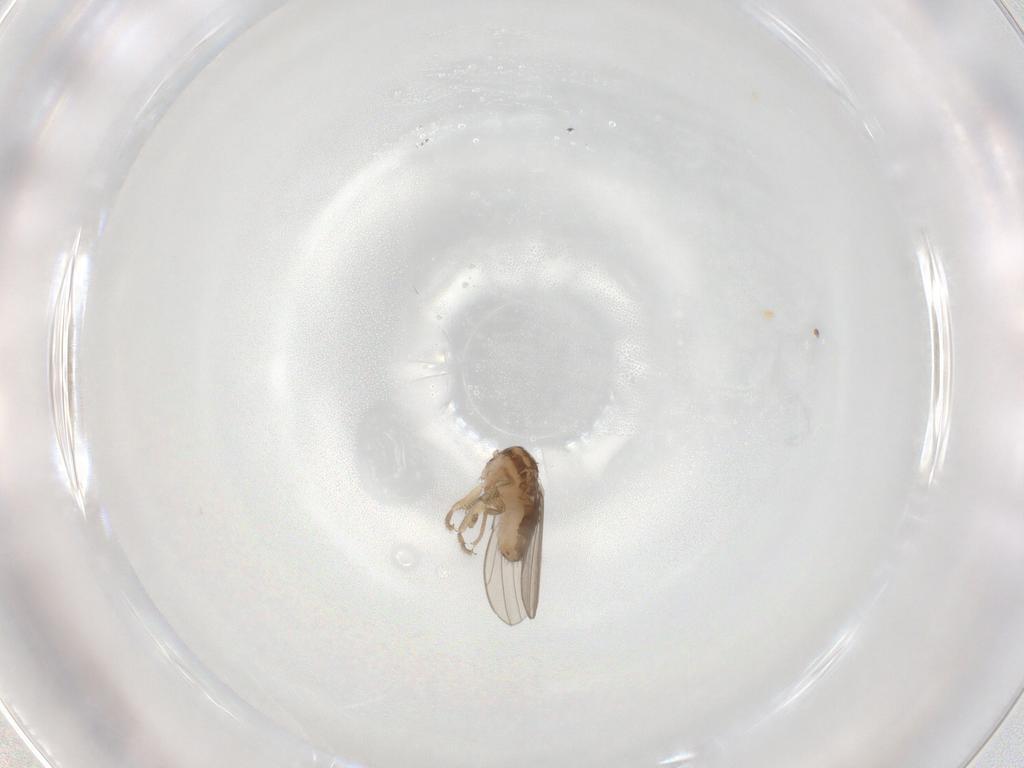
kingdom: Animalia
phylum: Arthropoda
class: Insecta
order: Diptera
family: Drosophilidae
